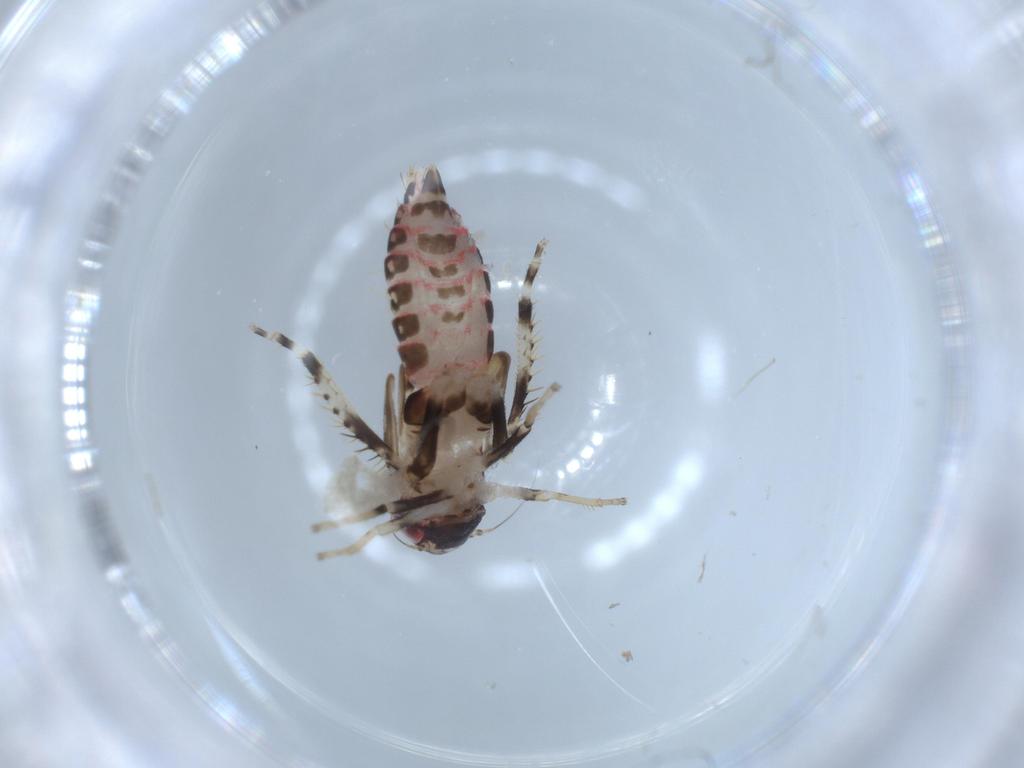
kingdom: Animalia
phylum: Arthropoda
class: Insecta
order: Hemiptera
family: Cicadellidae
